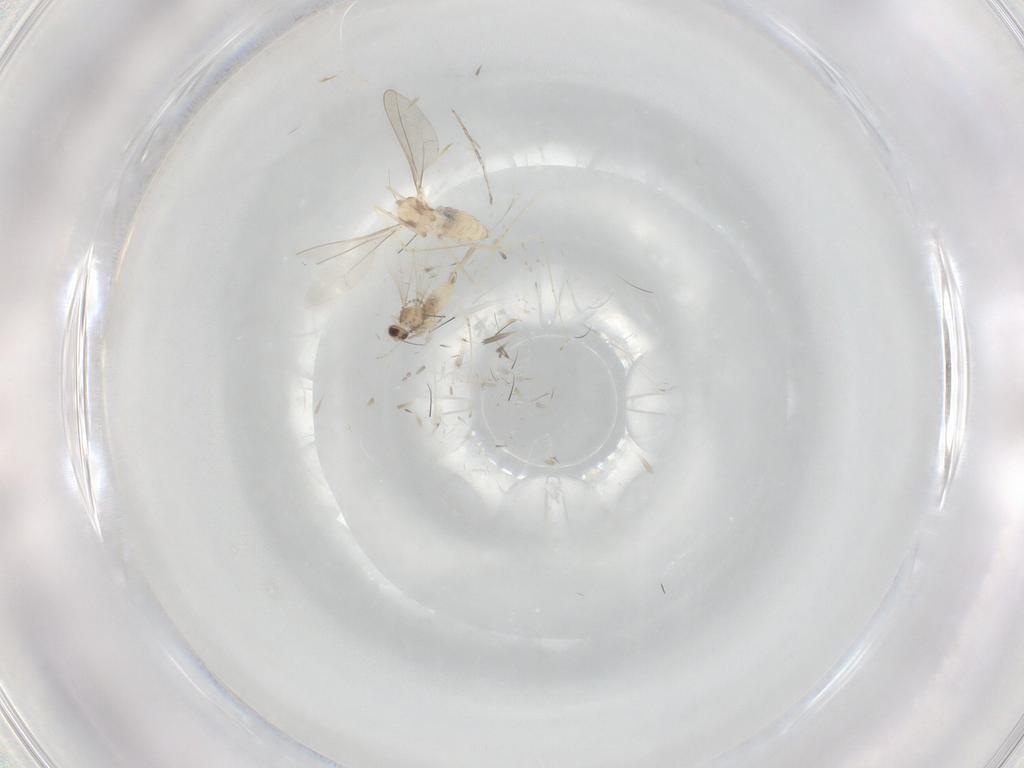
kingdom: Animalia
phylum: Arthropoda
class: Insecta
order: Diptera
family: Cecidomyiidae
